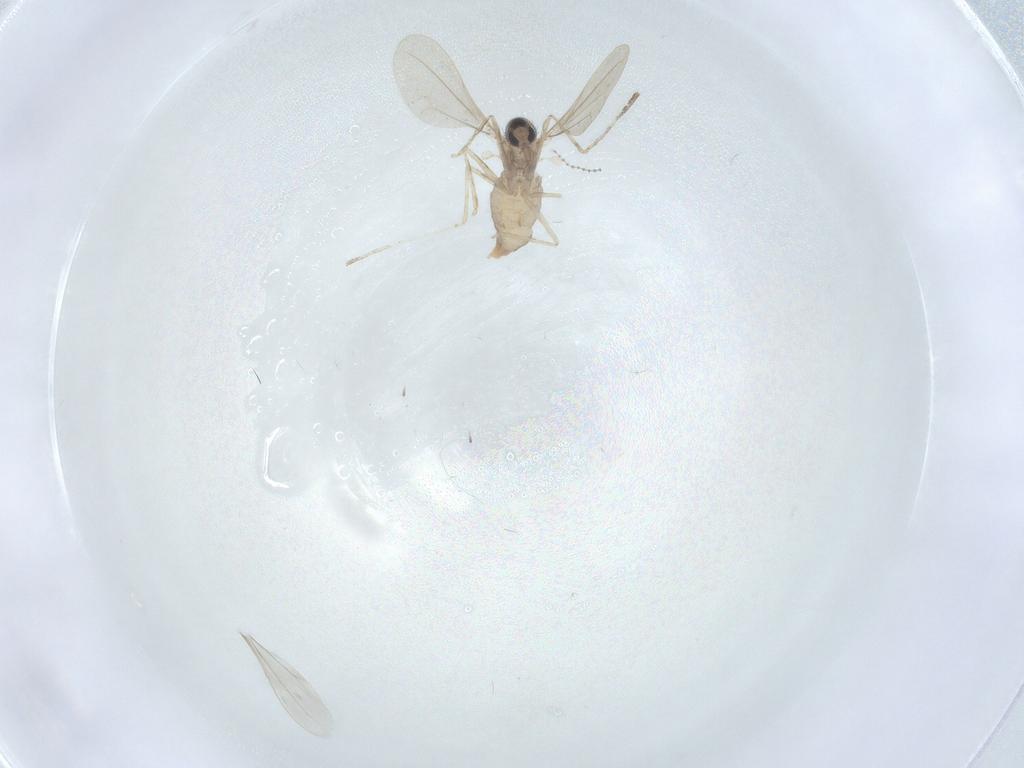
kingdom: Animalia
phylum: Arthropoda
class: Insecta
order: Diptera
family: Cecidomyiidae
